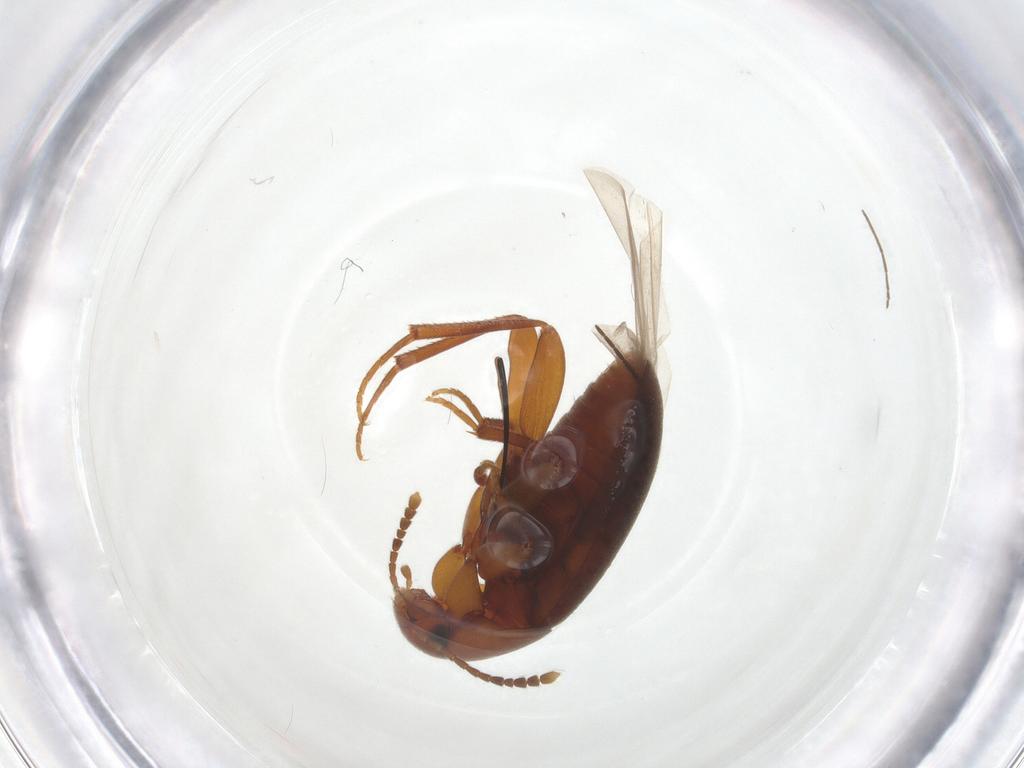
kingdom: Animalia
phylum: Arthropoda
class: Insecta
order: Coleoptera
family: Leiodidae
